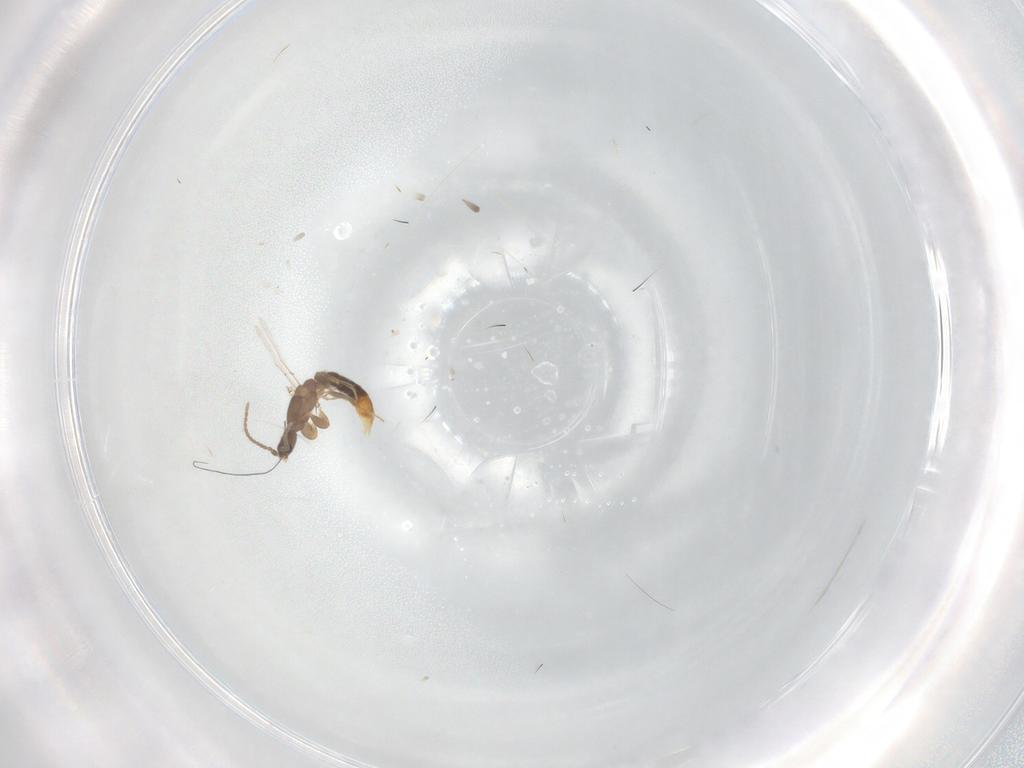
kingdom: Animalia
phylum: Arthropoda
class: Insecta
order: Hymenoptera
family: Formicidae
